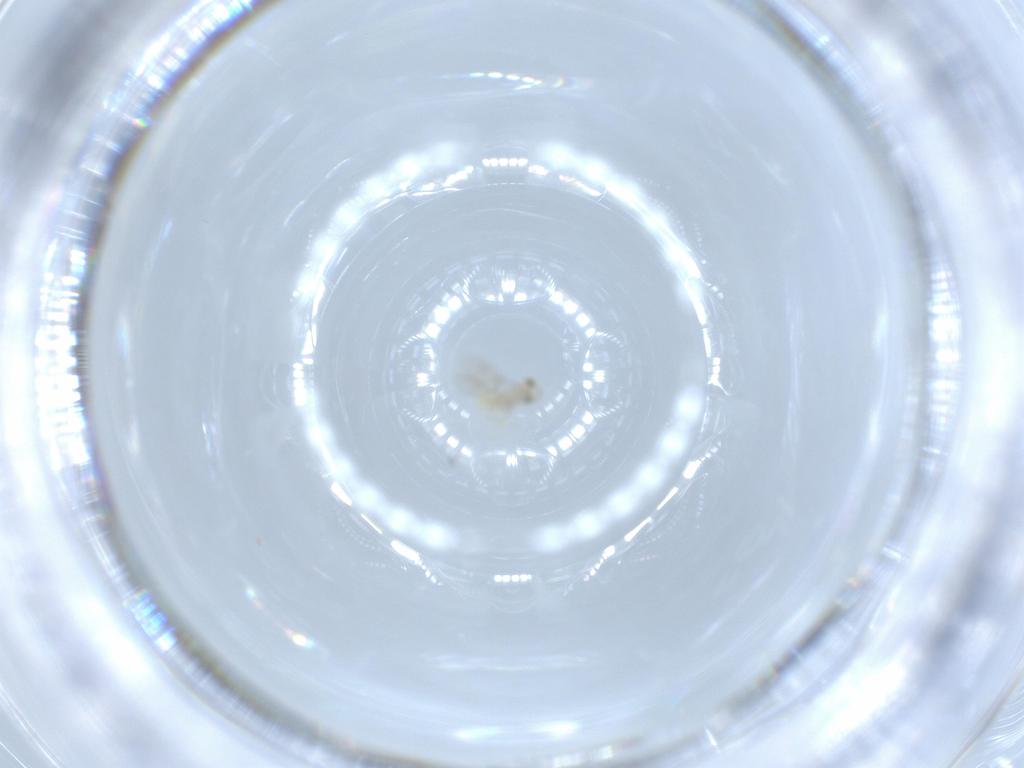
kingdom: Animalia
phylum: Arthropoda
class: Insecta
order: Hymenoptera
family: Aphelinidae
